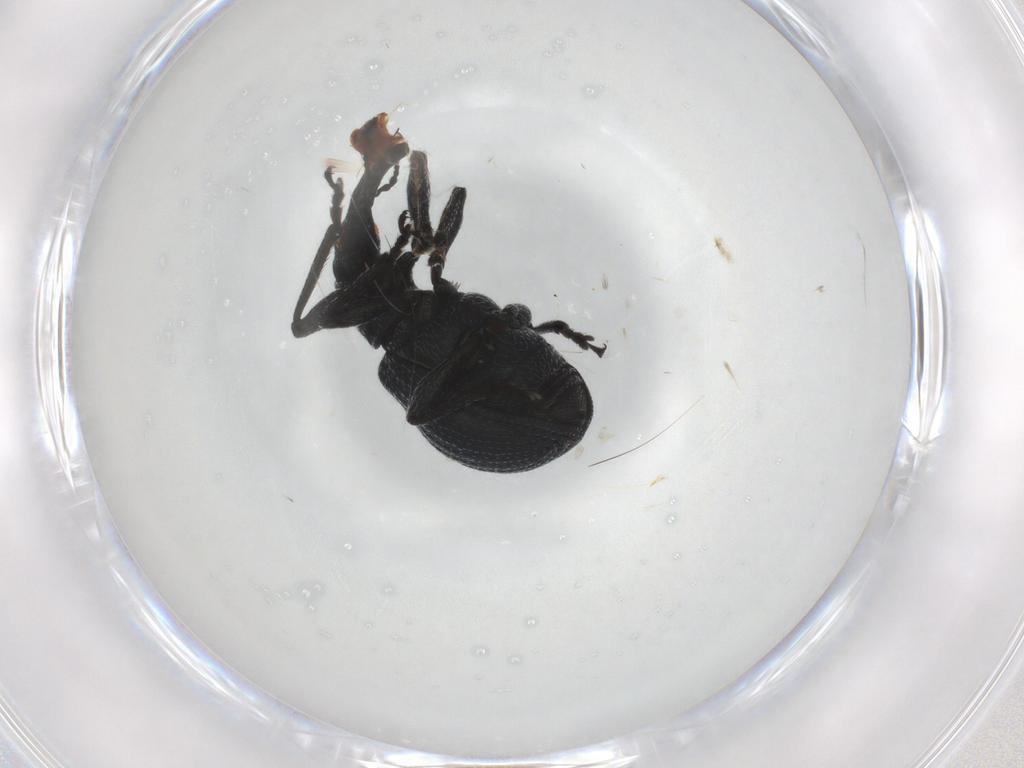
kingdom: Animalia
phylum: Arthropoda
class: Insecta
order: Coleoptera
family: Brentidae
